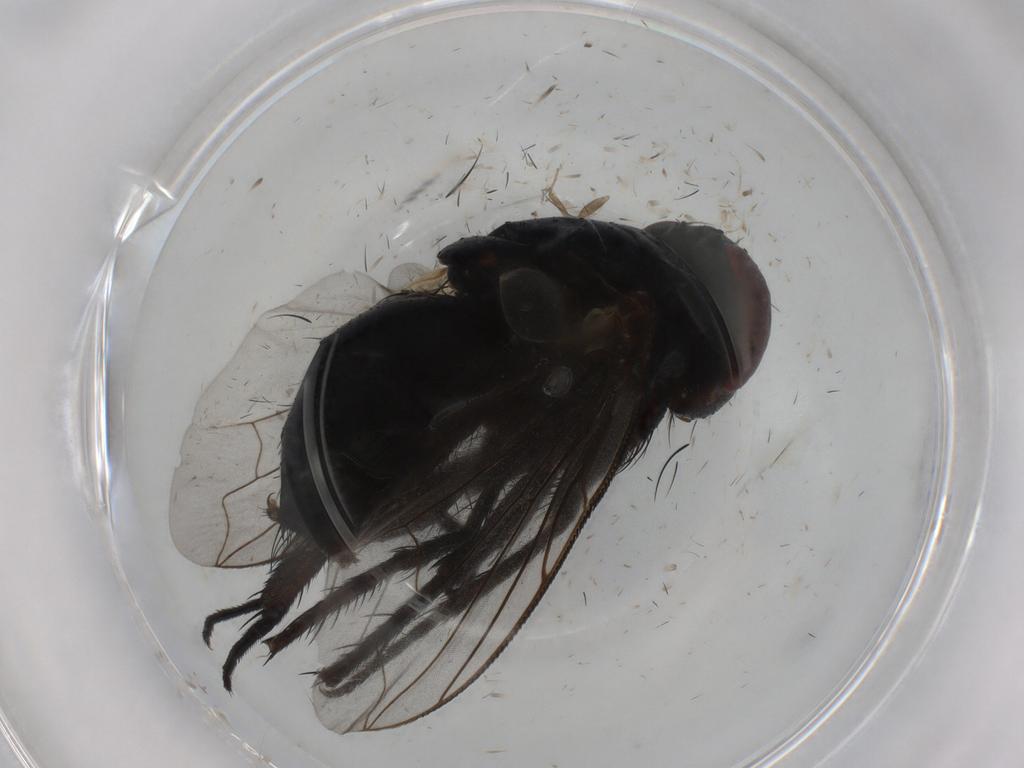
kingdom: Animalia
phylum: Arthropoda
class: Insecta
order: Diptera
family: Tachinidae
